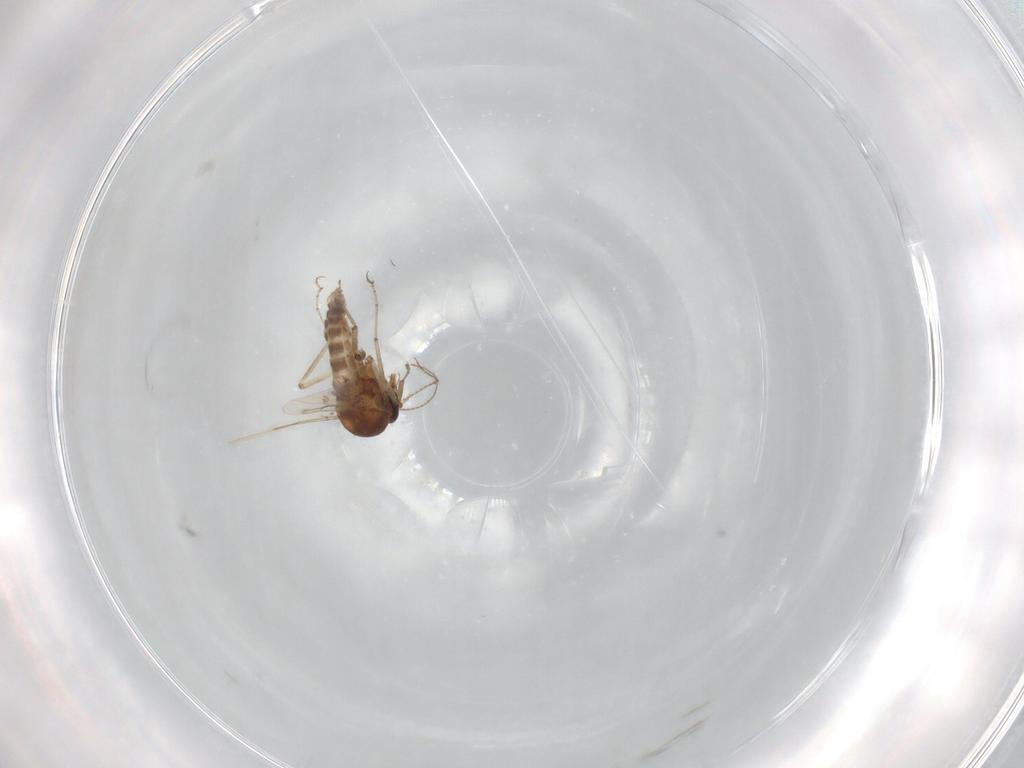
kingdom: Animalia
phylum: Arthropoda
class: Insecta
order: Diptera
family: Ceratopogonidae
